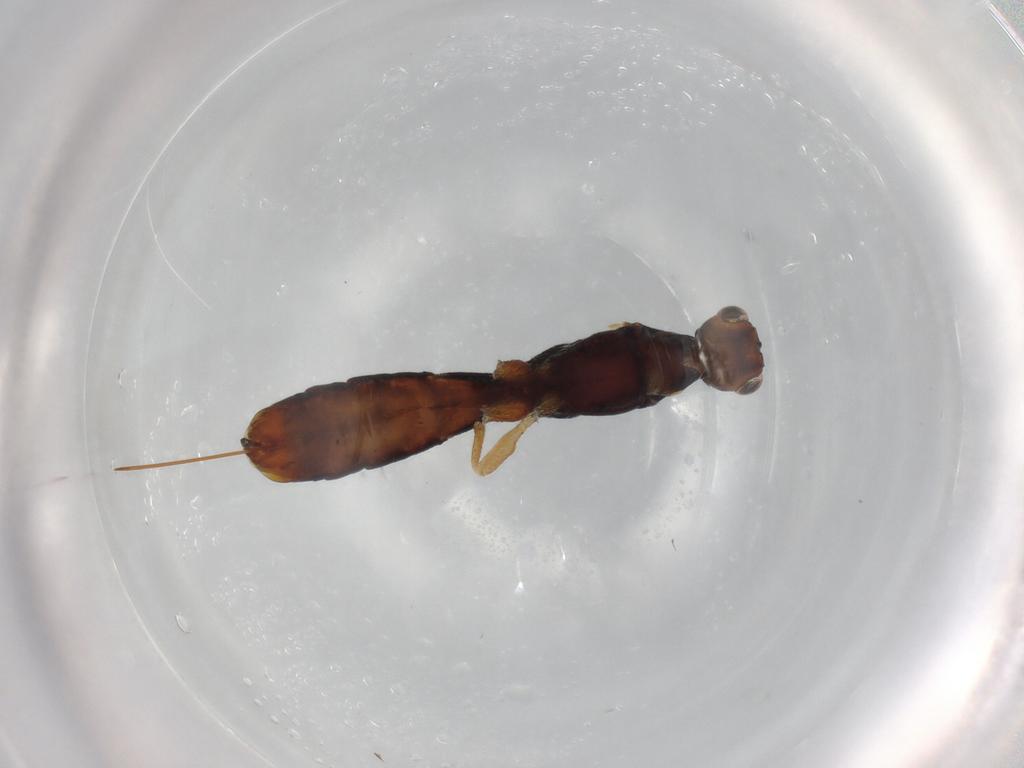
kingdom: Animalia
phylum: Arthropoda
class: Insecta
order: Hymenoptera
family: Braconidae
